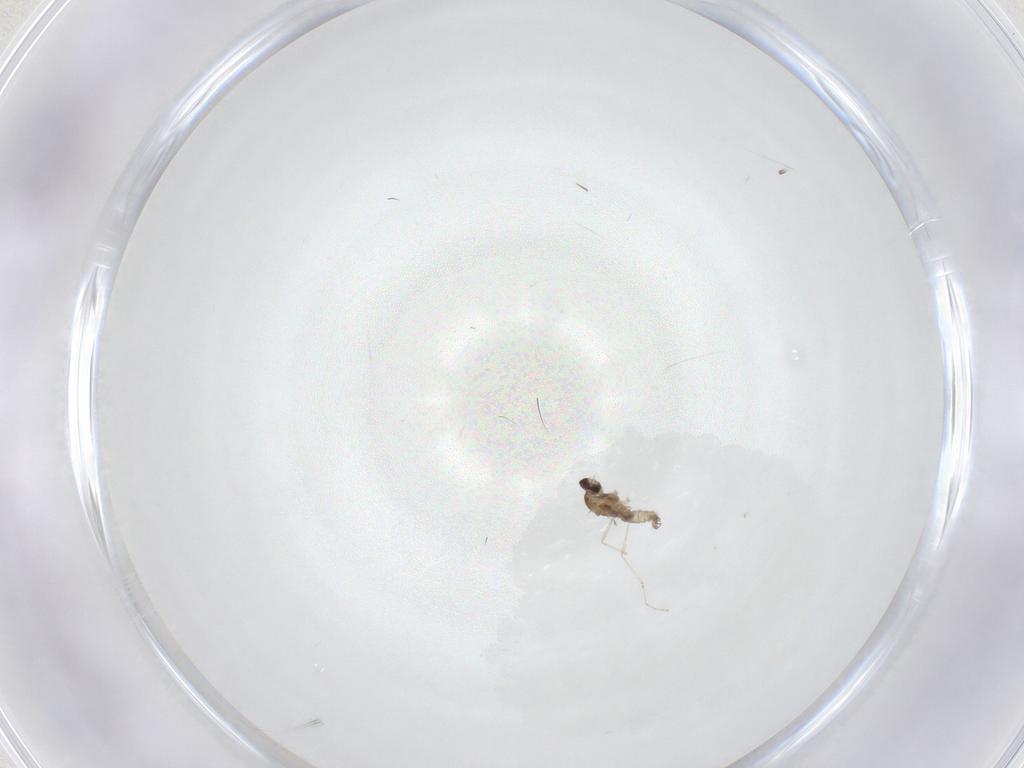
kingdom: Animalia
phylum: Arthropoda
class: Insecta
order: Diptera
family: Cecidomyiidae
